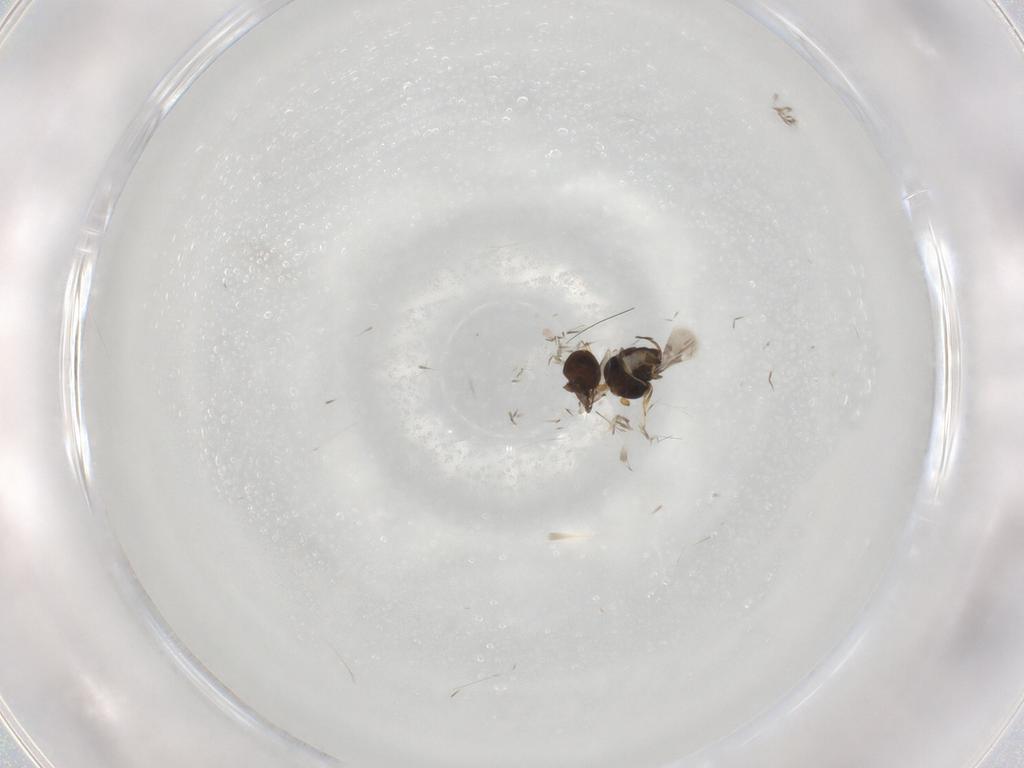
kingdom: Animalia
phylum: Arthropoda
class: Insecta
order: Hymenoptera
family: Scelionidae
